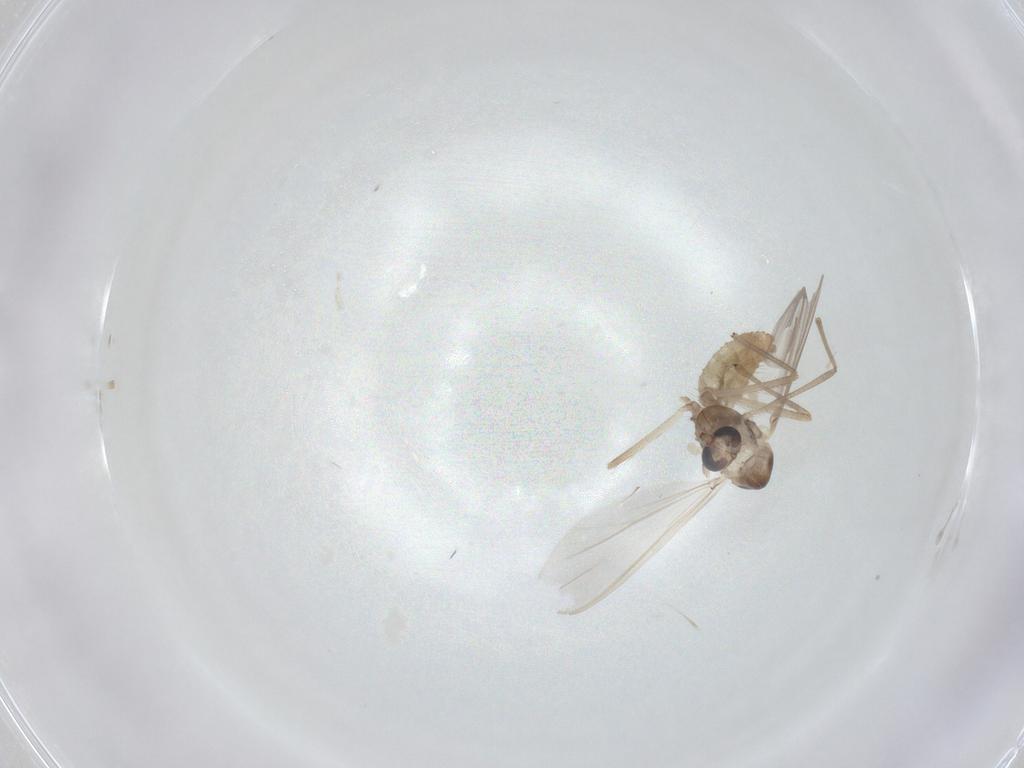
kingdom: Animalia
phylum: Arthropoda
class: Insecta
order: Diptera
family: Chironomidae
